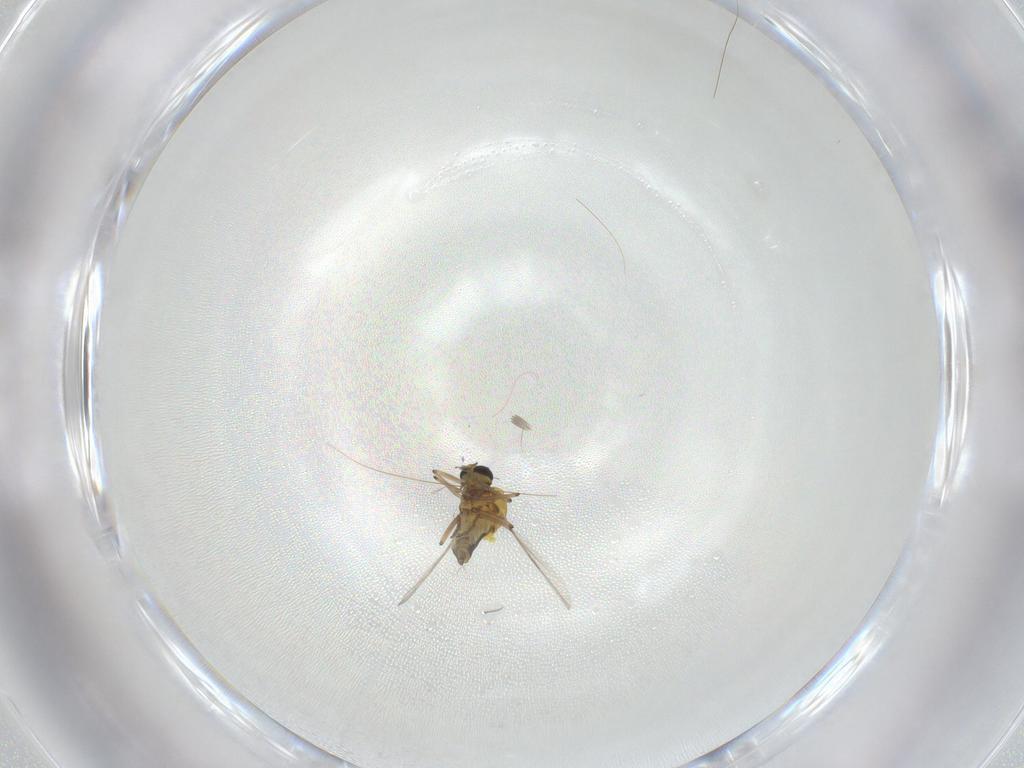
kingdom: Animalia
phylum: Arthropoda
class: Insecta
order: Diptera
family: Ceratopogonidae
